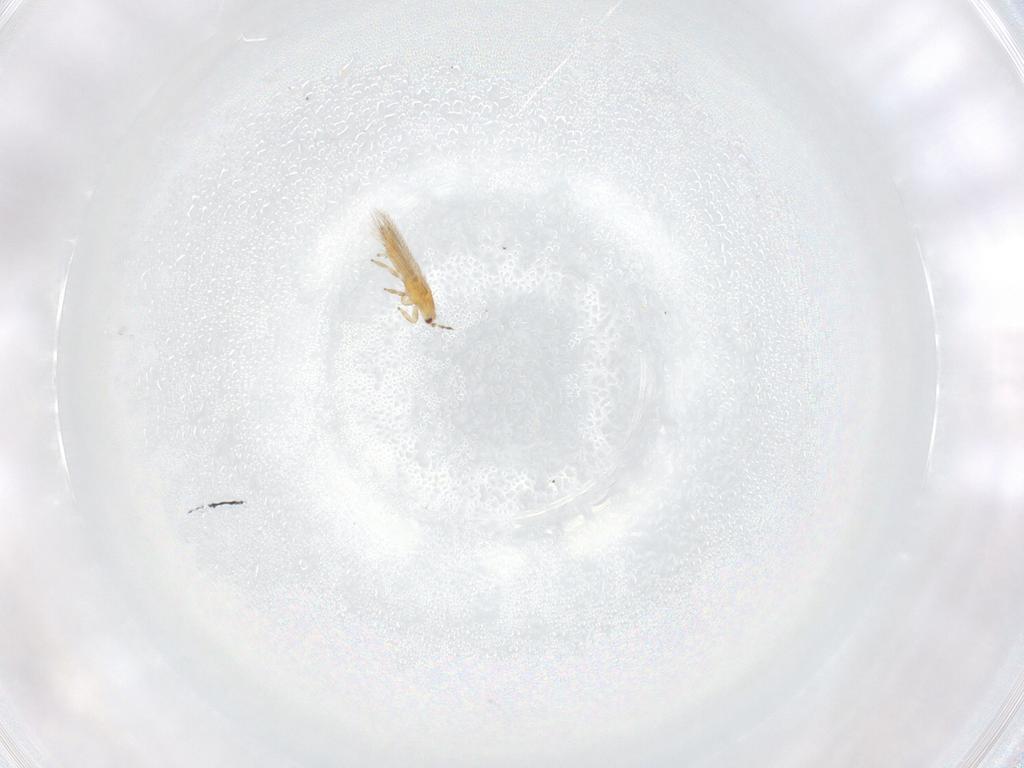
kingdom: Animalia
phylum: Arthropoda
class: Insecta
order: Thysanoptera
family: Thripidae
